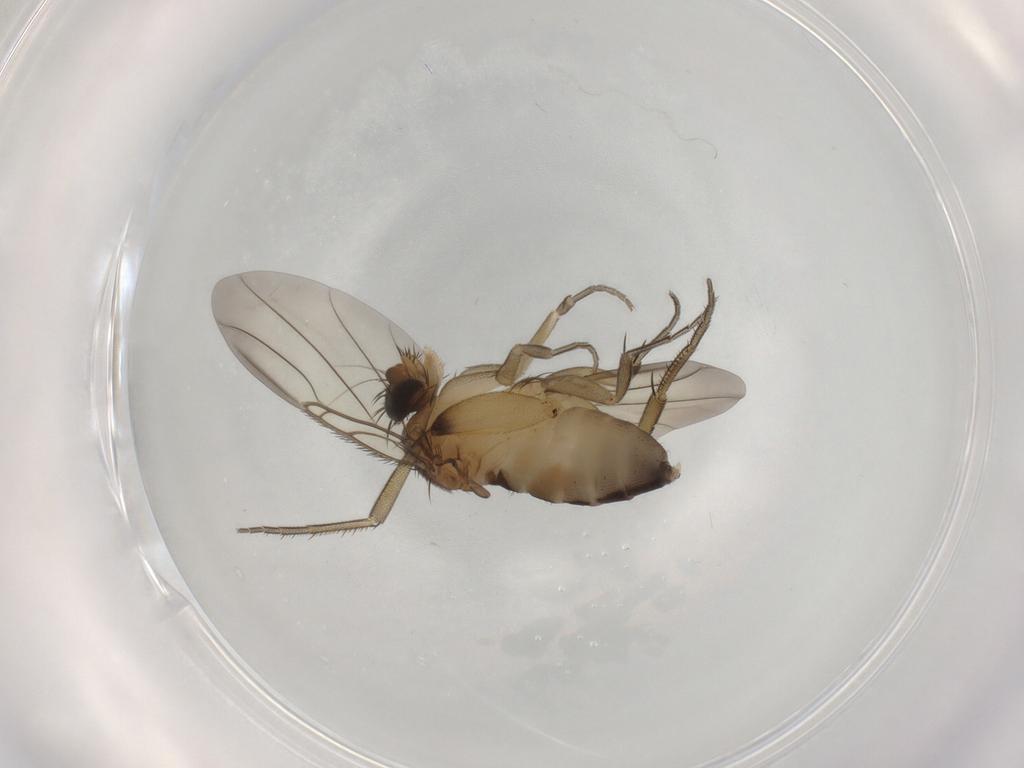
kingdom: Animalia
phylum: Arthropoda
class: Insecta
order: Diptera
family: Phoridae
